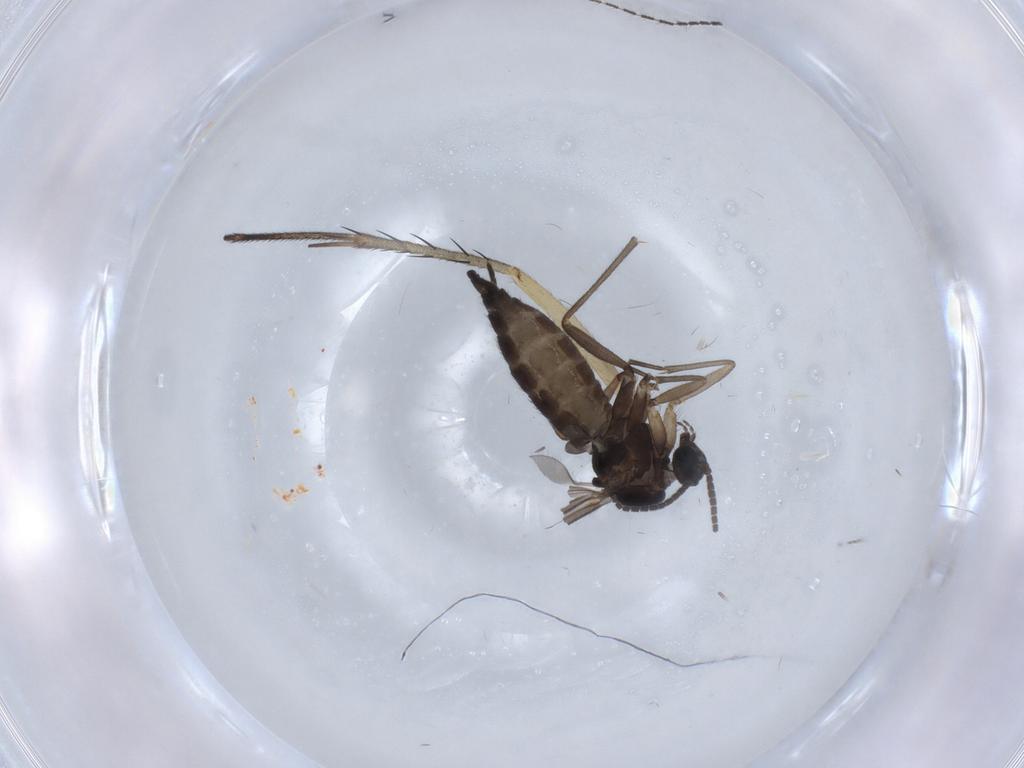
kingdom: Animalia
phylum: Arthropoda
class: Insecta
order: Diptera
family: Sciaridae
